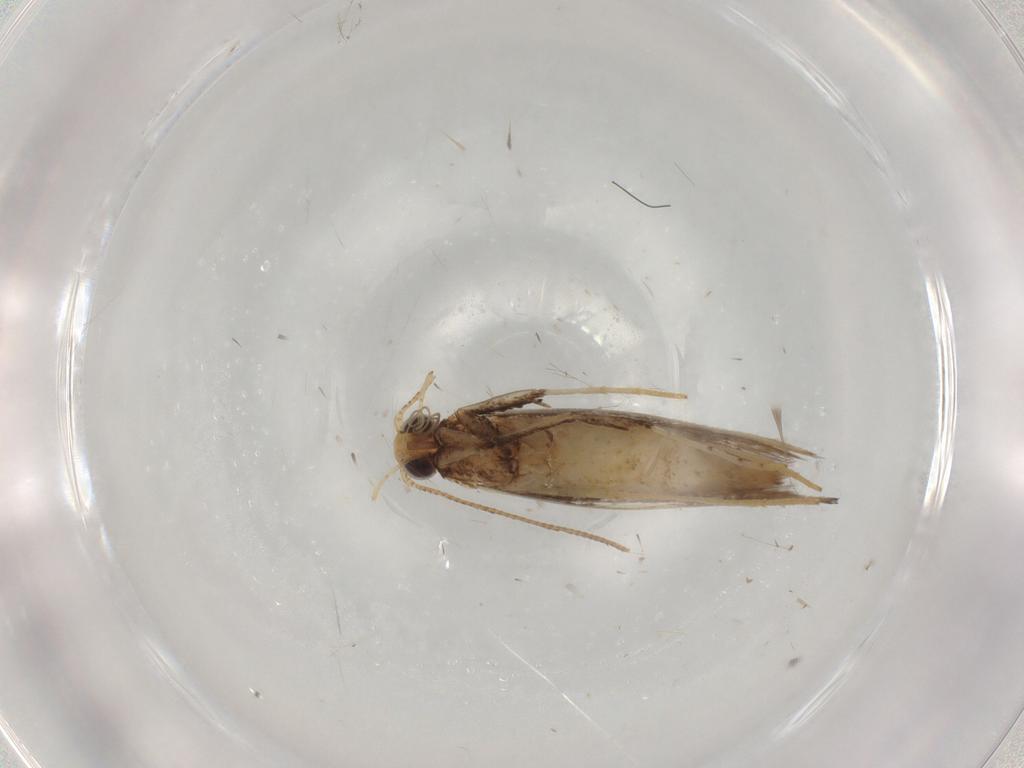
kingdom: Animalia
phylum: Arthropoda
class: Insecta
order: Lepidoptera
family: Gracillariidae
